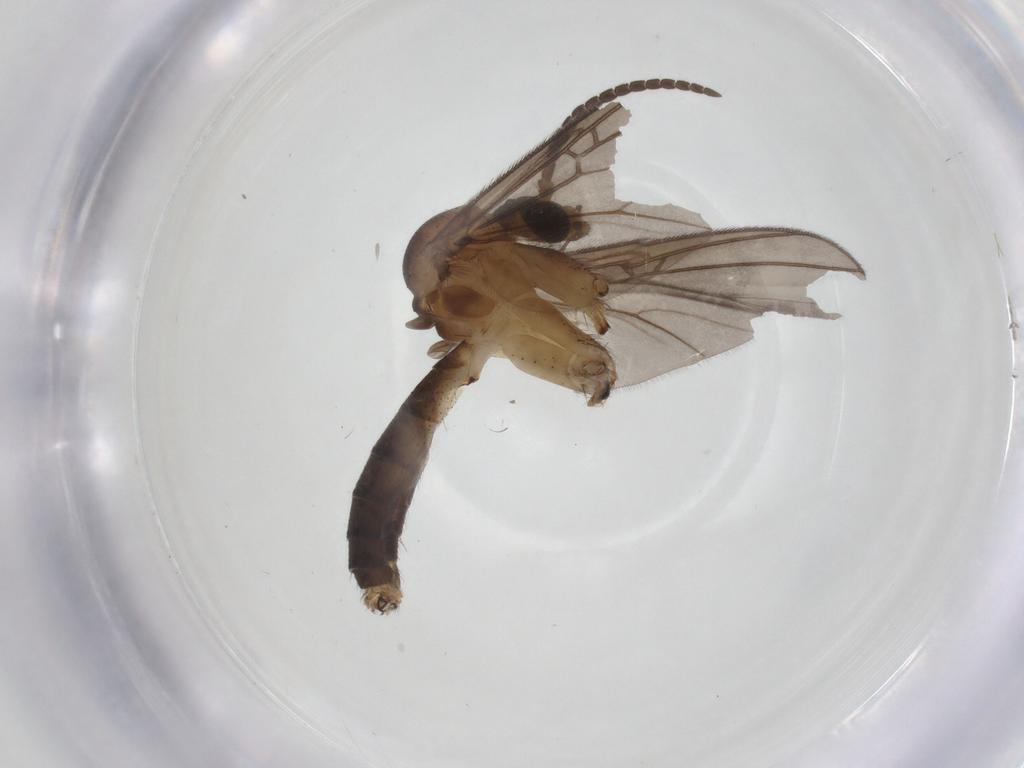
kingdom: Animalia
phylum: Arthropoda
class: Insecta
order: Diptera
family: Mycetophilidae
